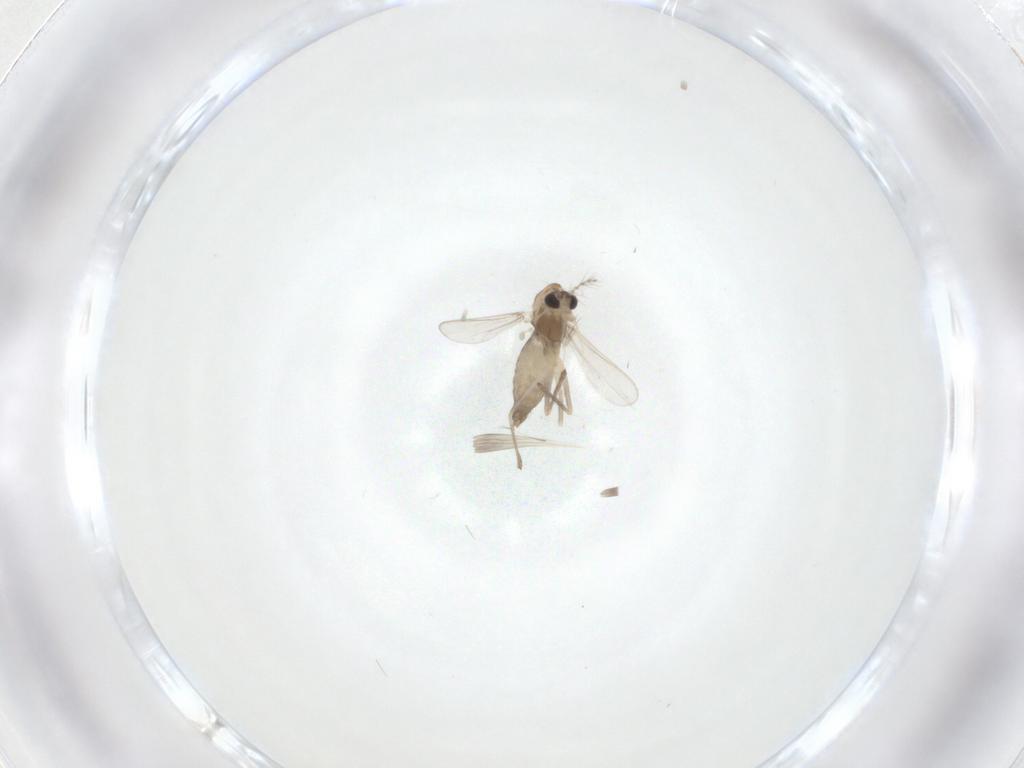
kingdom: Animalia
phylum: Arthropoda
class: Insecta
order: Diptera
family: Chironomidae
